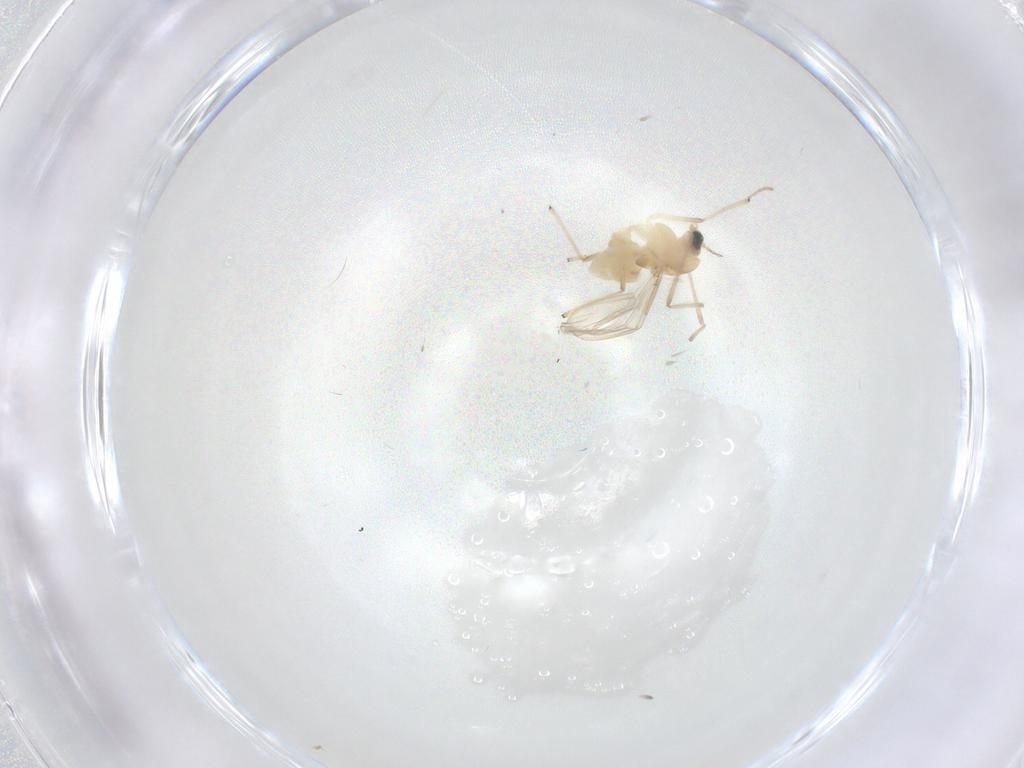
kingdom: Animalia
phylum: Arthropoda
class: Insecta
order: Diptera
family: Chironomidae
